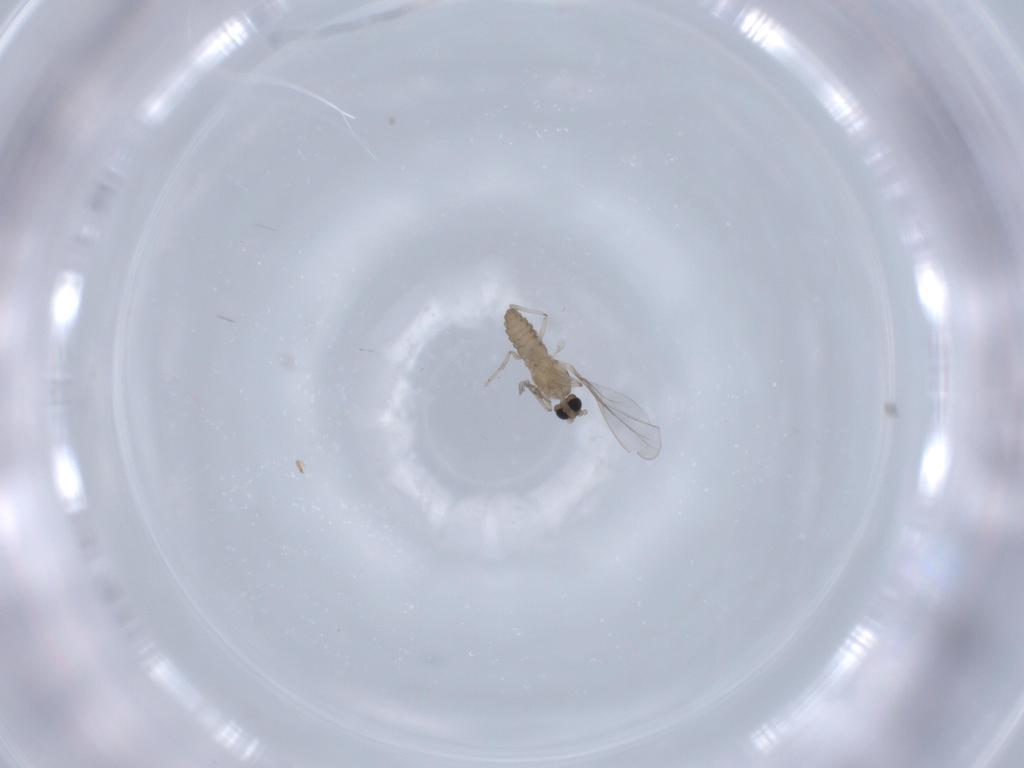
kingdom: Animalia
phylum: Arthropoda
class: Insecta
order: Diptera
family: Cecidomyiidae
